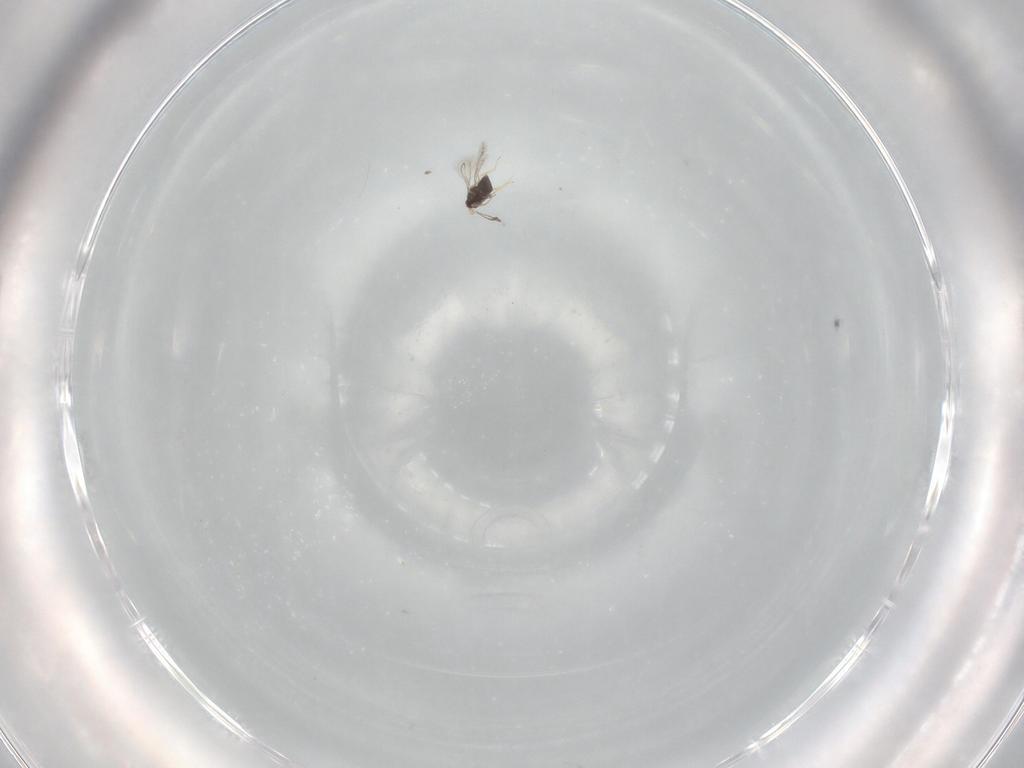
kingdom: Animalia
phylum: Arthropoda
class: Insecta
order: Hymenoptera
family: Mymaridae
